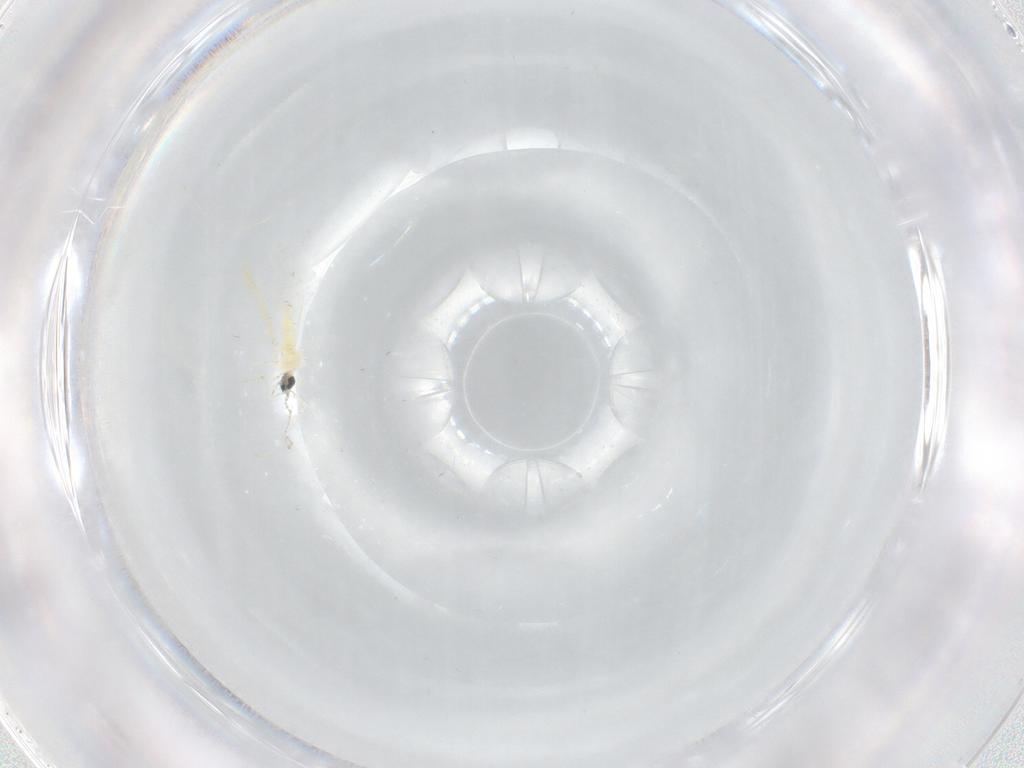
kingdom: Animalia
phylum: Arthropoda
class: Insecta
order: Diptera
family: Cecidomyiidae
